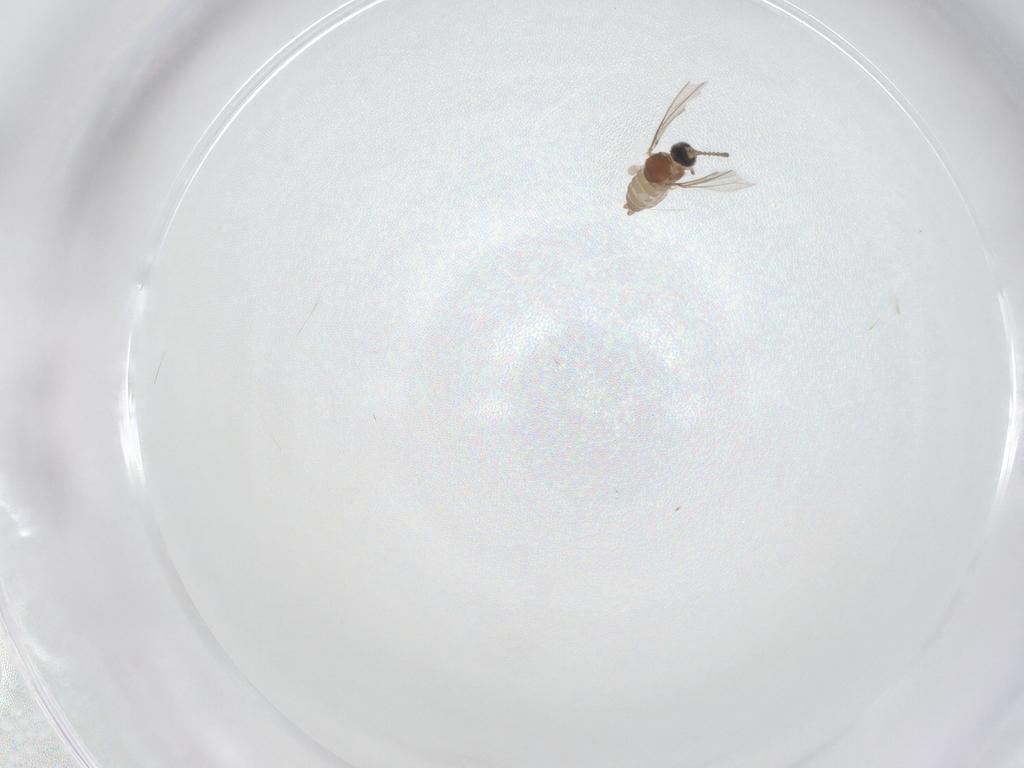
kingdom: Animalia
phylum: Arthropoda
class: Insecta
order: Diptera
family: Cecidomyiidae
